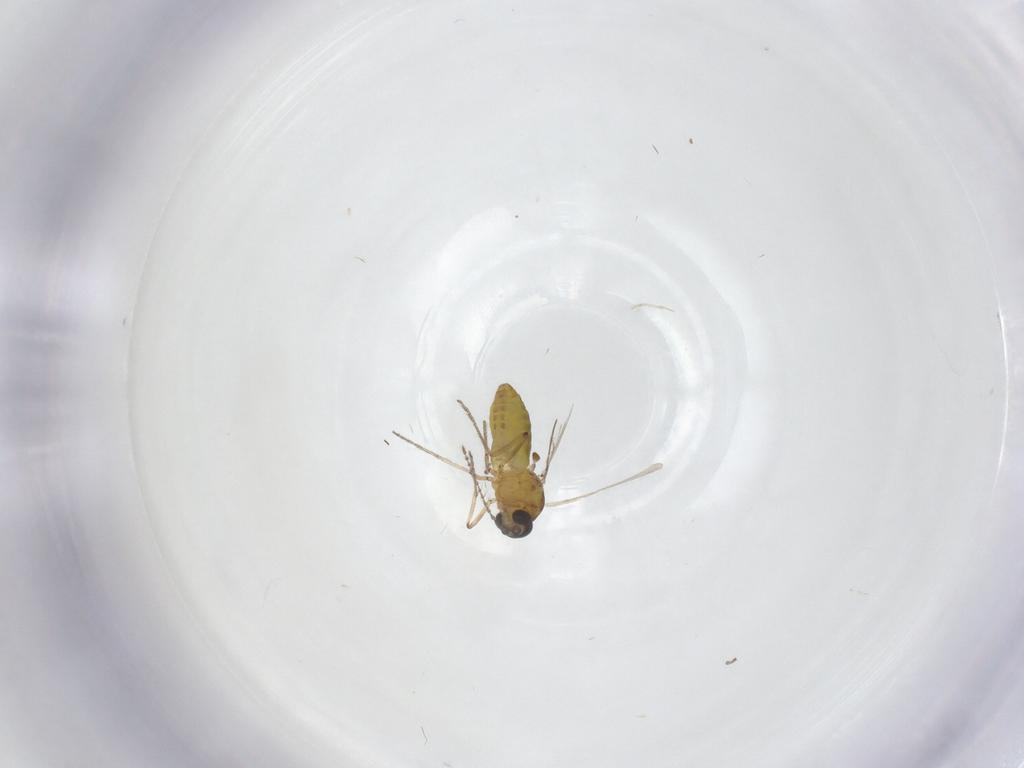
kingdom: Animalia
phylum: Arthropoda
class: Insecta
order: Diptera
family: Ceratopogonidae
